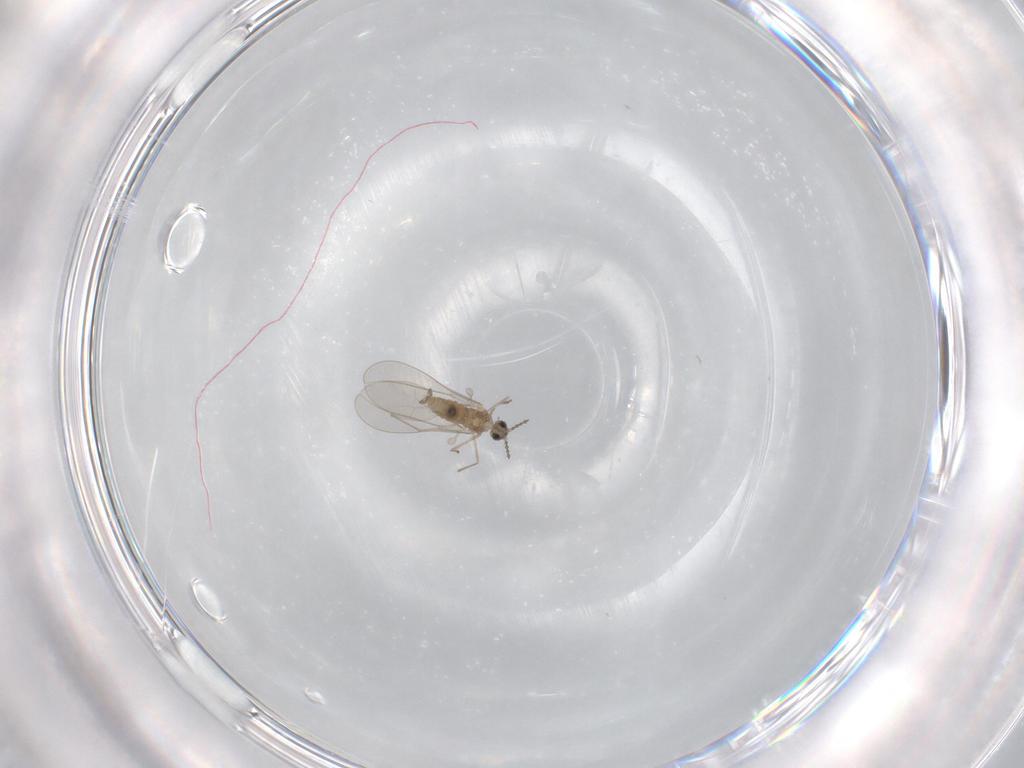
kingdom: Animalia
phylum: Arthropoda
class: Insecta
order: Diptera
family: Cecidomyiidae
